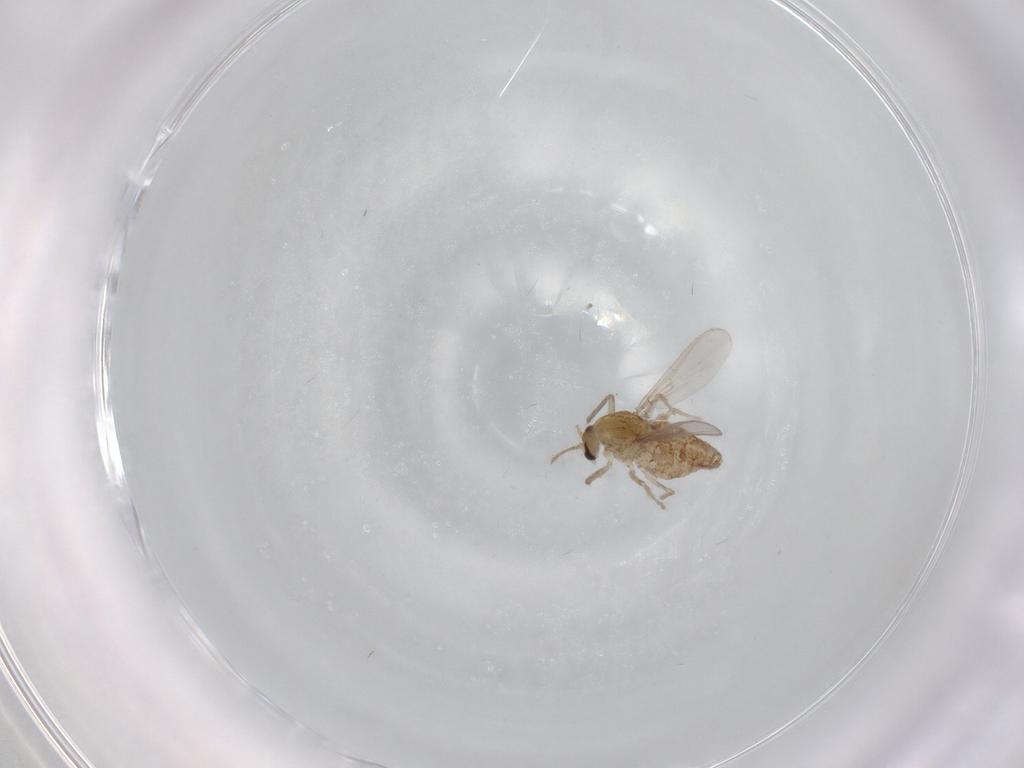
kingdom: Animalia
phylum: Arthropoda
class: Insecta
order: Diptera
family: Chironomidae
